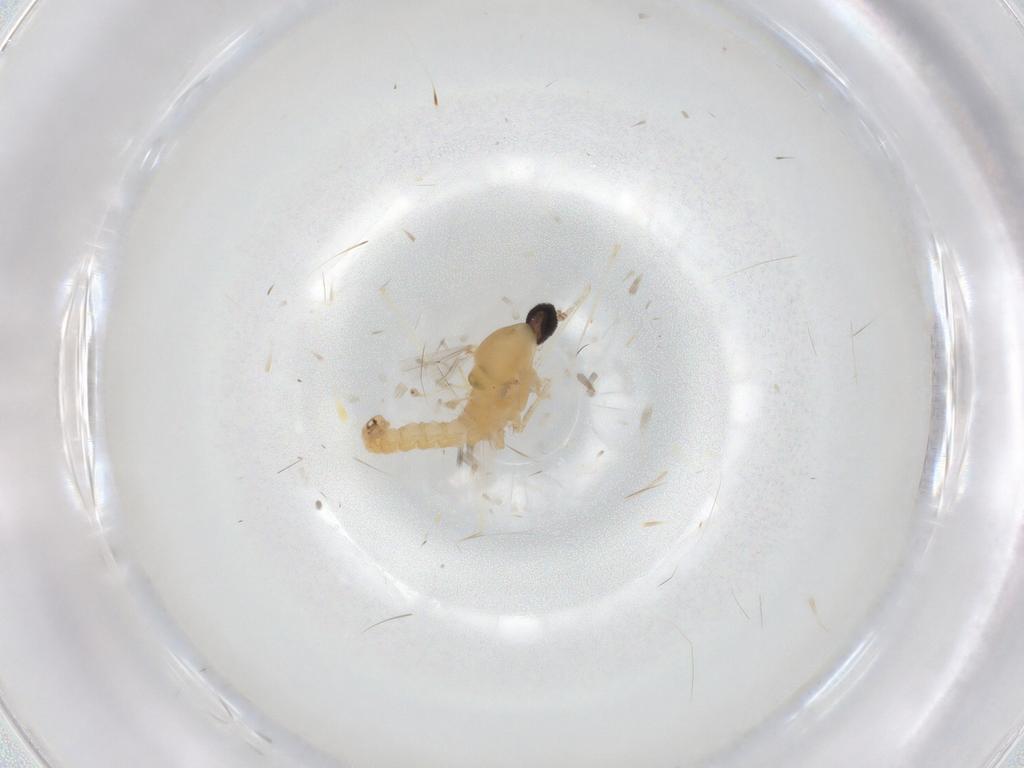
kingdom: Animalia
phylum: Arthropoda
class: Insecta
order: Diptera
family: Cecidomyiidae
